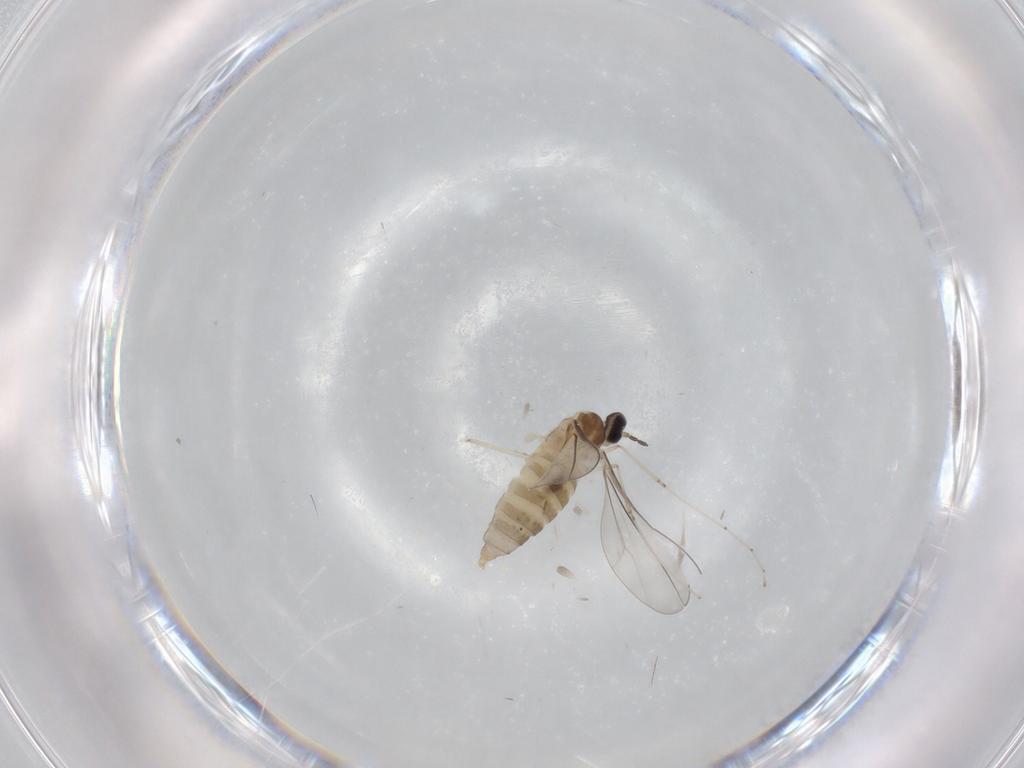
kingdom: Animalia
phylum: Arthropoda
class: Insecta
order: Diptera
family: Cecidomyiidae
